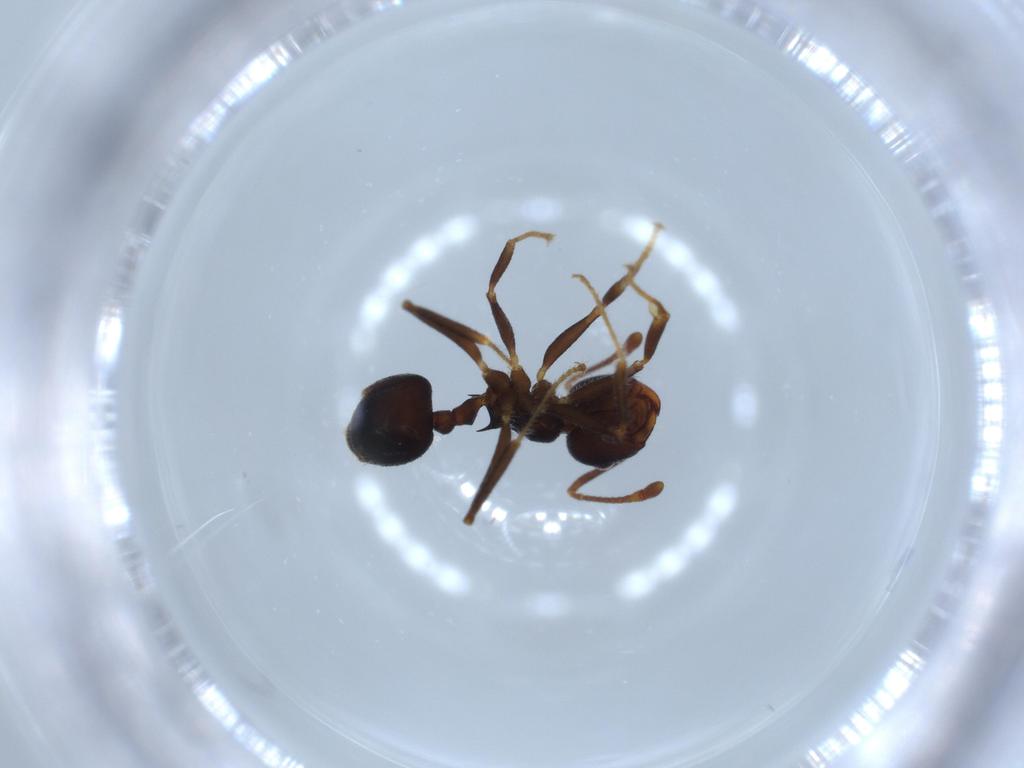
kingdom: Animalia
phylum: Arthropoda
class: Insecta
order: Hymenoptera
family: Formicidae
